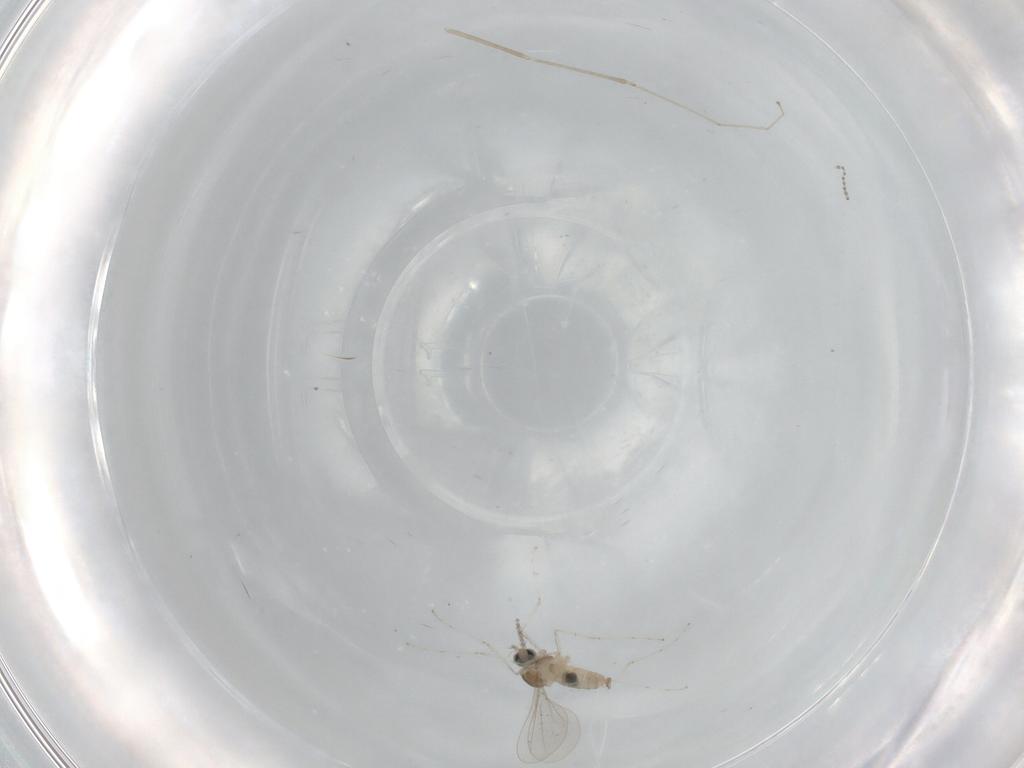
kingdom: Animalia
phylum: Arthropoda
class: Insecta
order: Diptera
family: Cecidomyiidae
